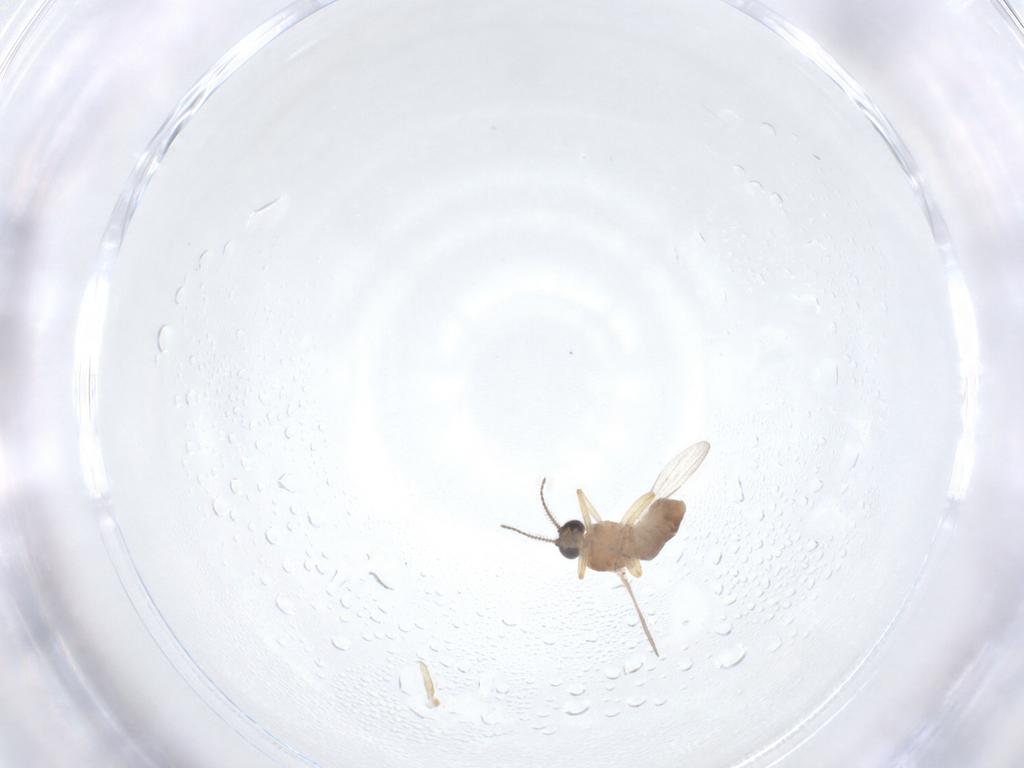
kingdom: Animalia
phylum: Arthropoda
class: Insecta
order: Diptera
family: Ceratopogonidae
